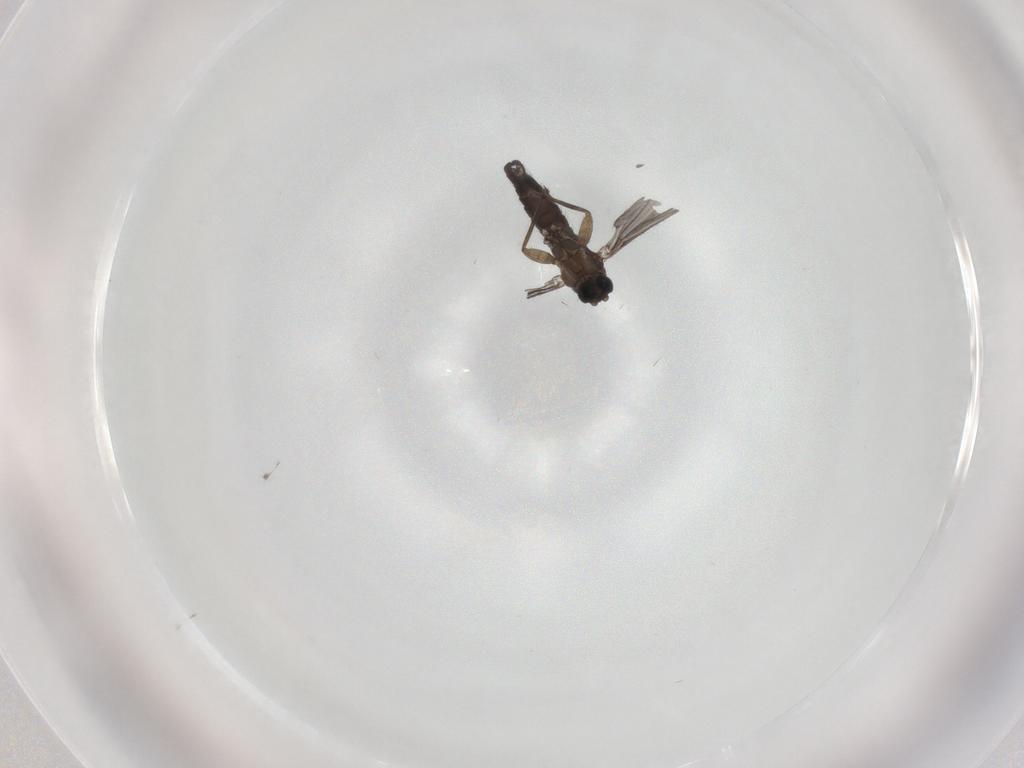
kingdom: Animalia
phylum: Arthropoda
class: Insecta
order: Diptera
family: Sciaridae
